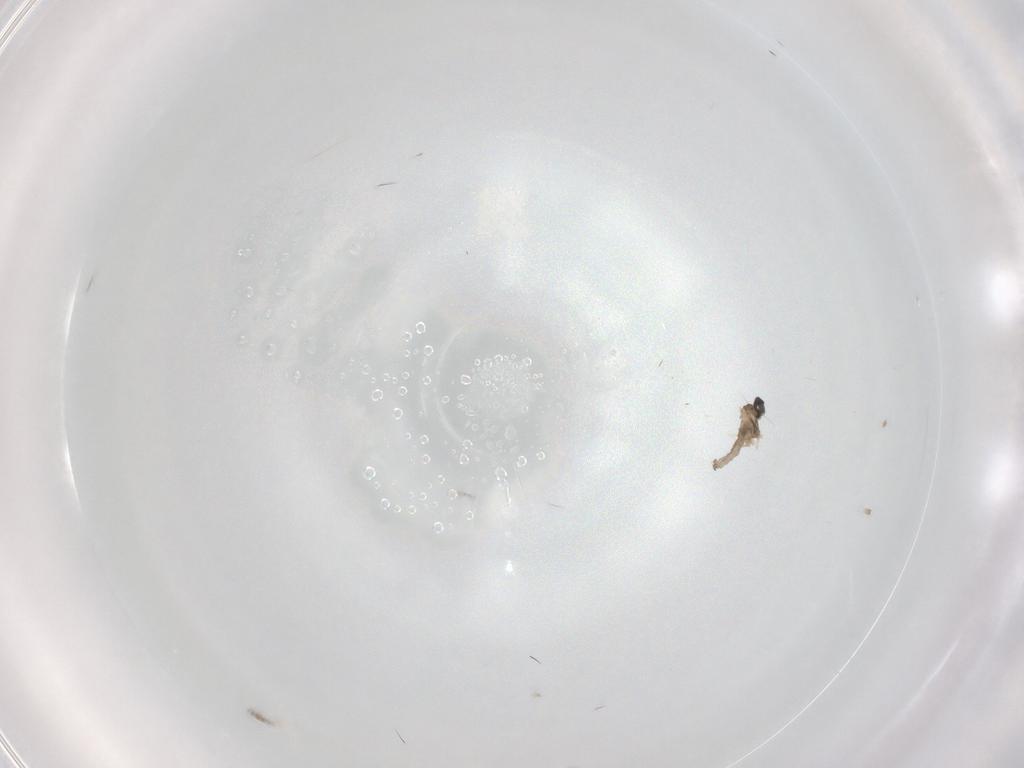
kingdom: Animalia
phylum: Arthropoda
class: Insecta
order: Diptera
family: Cecidomyiidae
